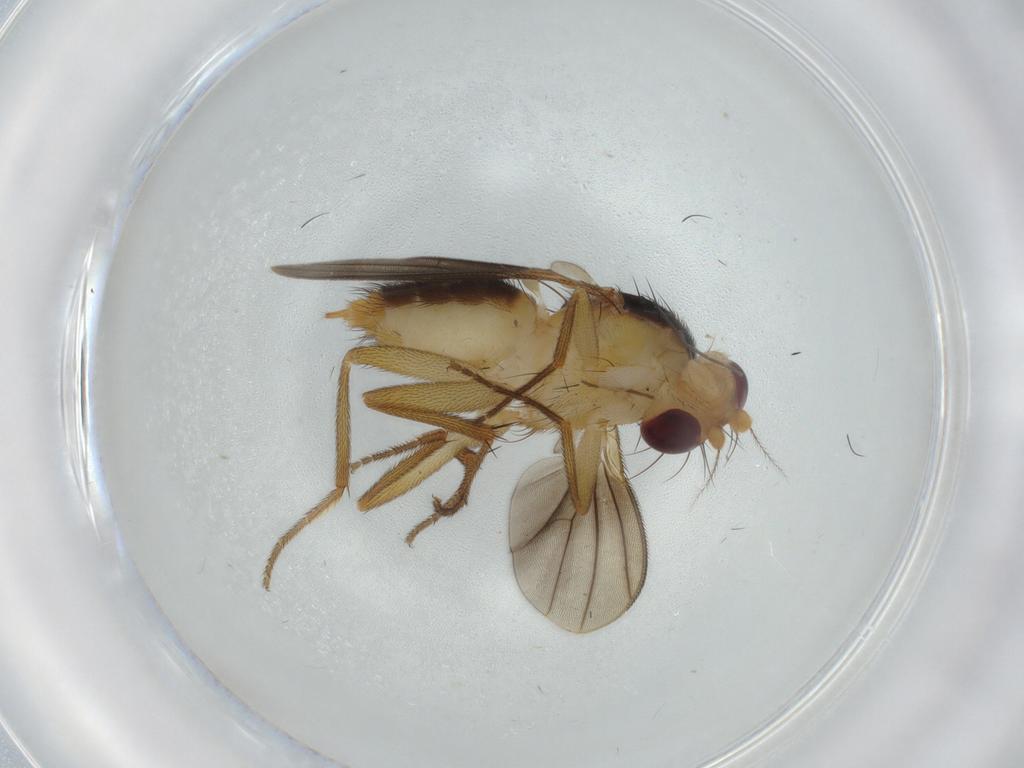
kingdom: Animalia
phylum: Arthropoda
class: Insecta
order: Diptera
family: Clusiidae
